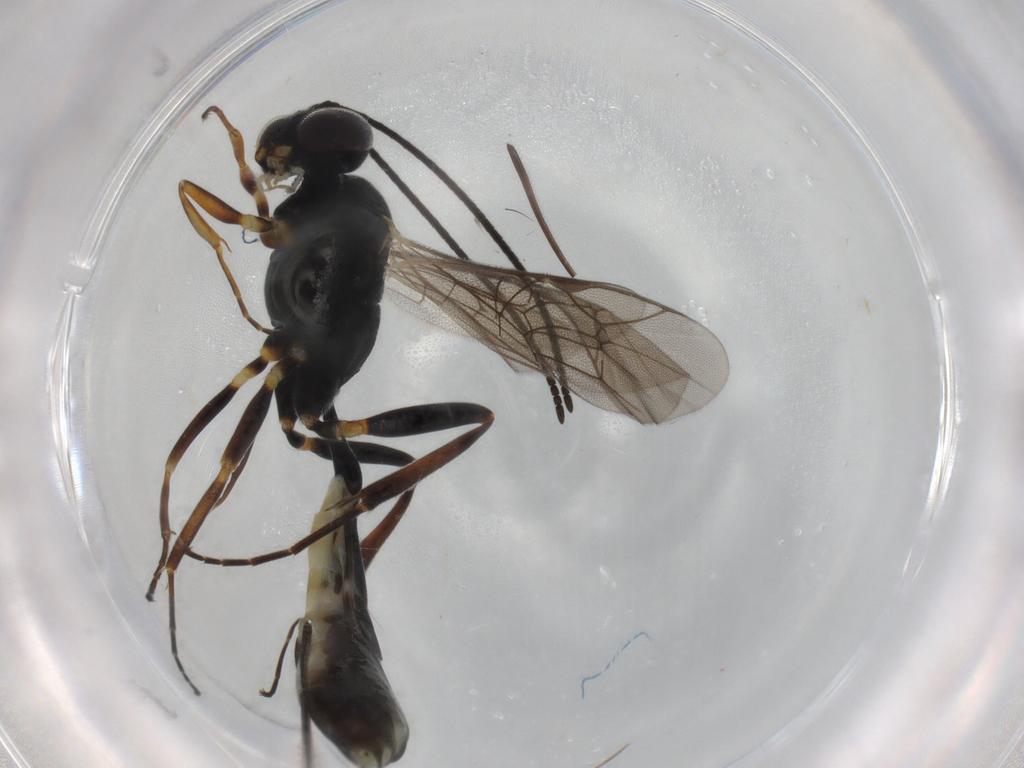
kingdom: Animalia
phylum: Arthropoda
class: Insecta
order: Hymenoptera
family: Eulophidae
